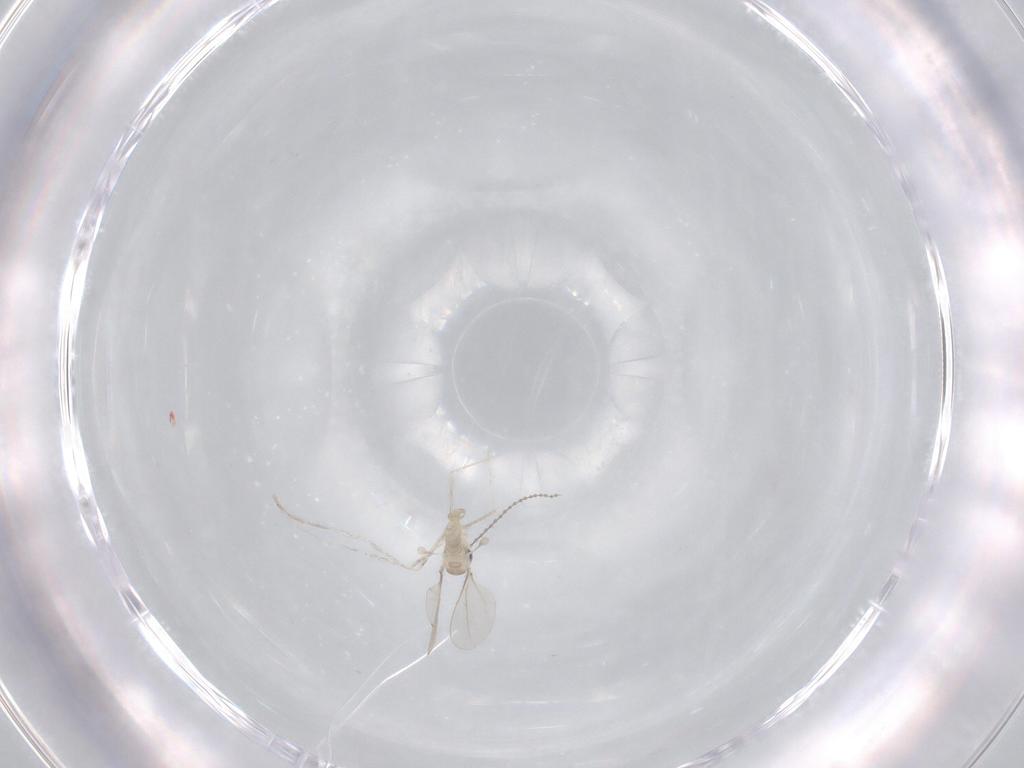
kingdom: Animalia
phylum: Arthropoda
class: Insecta
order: Diptera
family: Cecidomyiidae
